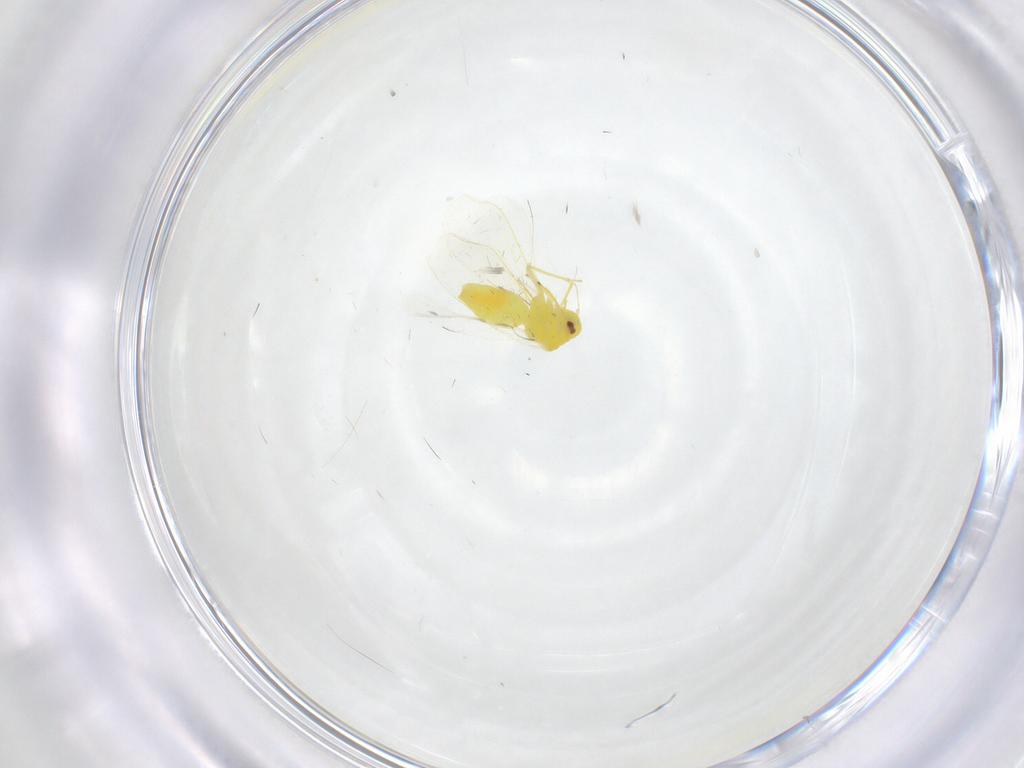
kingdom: Animalia
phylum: Arthropoda
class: Insecta
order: Hemiptera
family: Aleyrodidae
